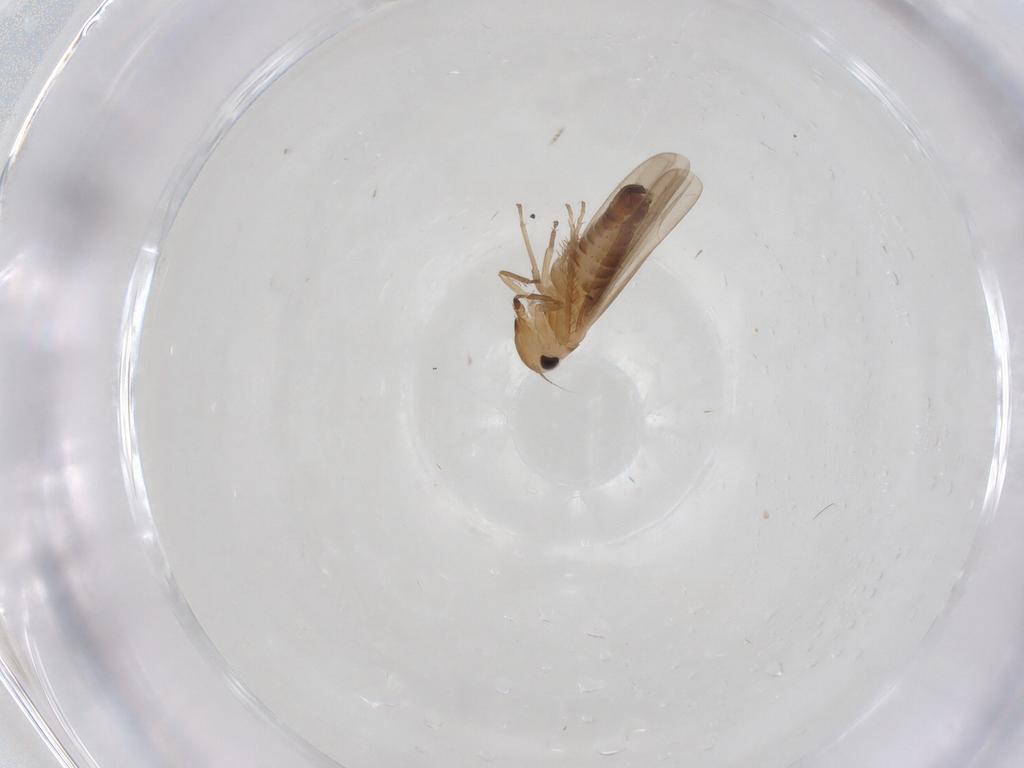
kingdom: Animalia
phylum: Arthropoda
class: Insecta
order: Hemiptera
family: Cicadellidae
